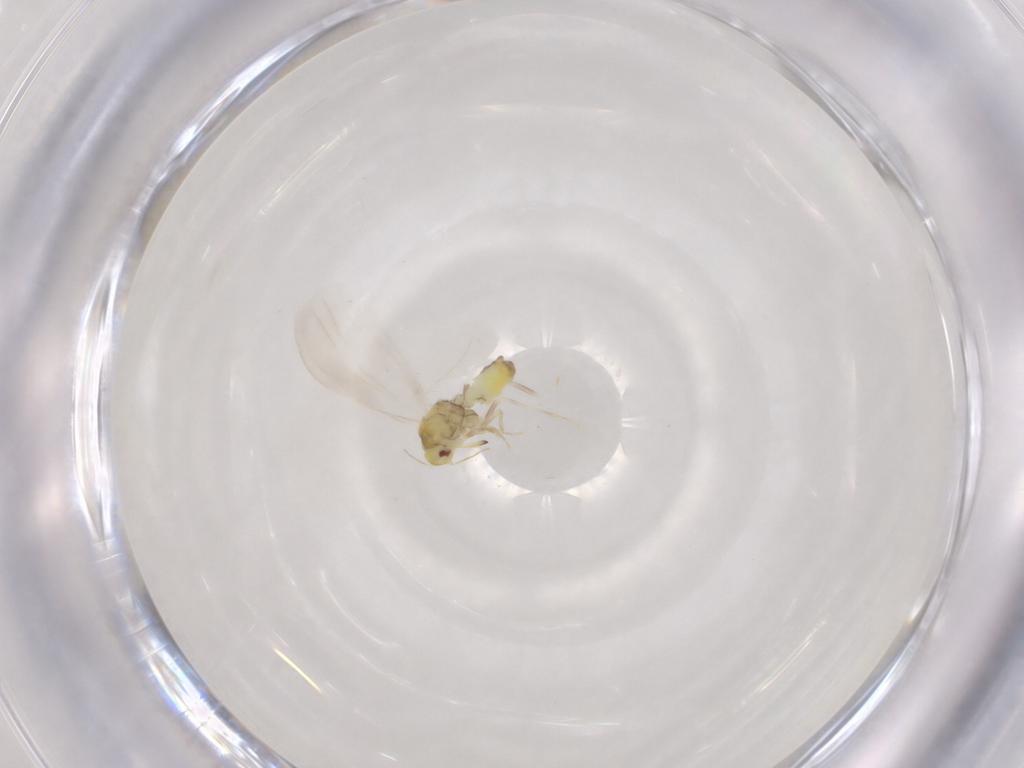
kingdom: Animalia
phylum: Arthropoda
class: Insecta
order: Hemiptera
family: Aleyrodidae
